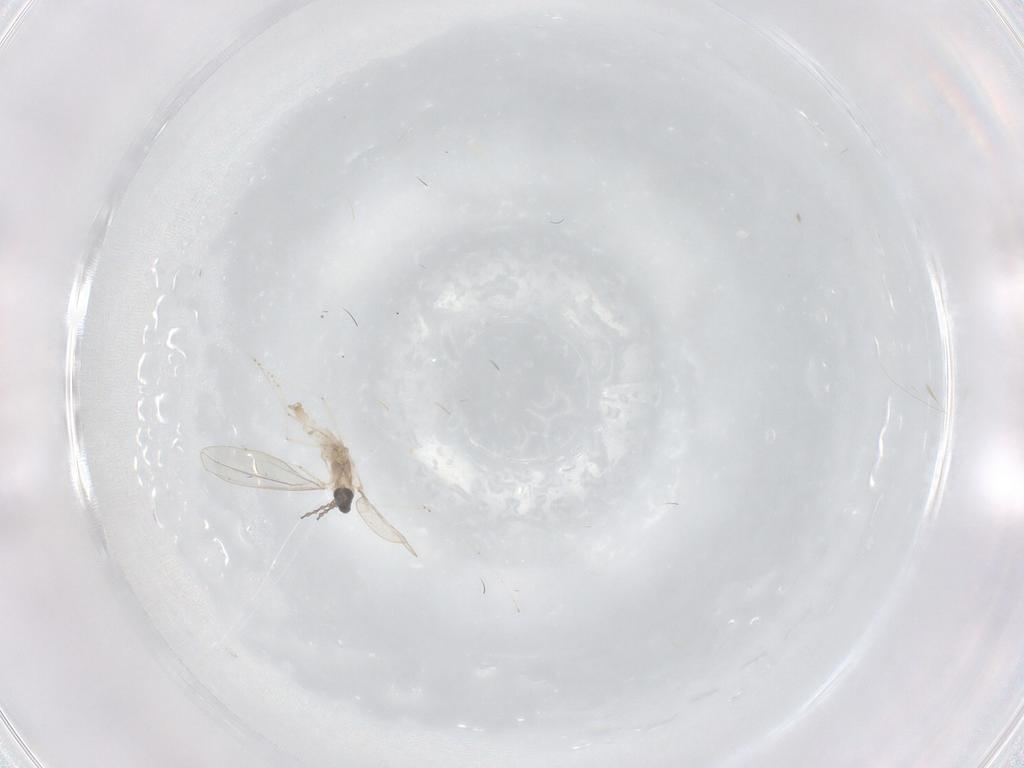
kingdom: Animalia
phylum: Arthropoda
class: Insecta
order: Diptera
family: Cecidomyiidae
